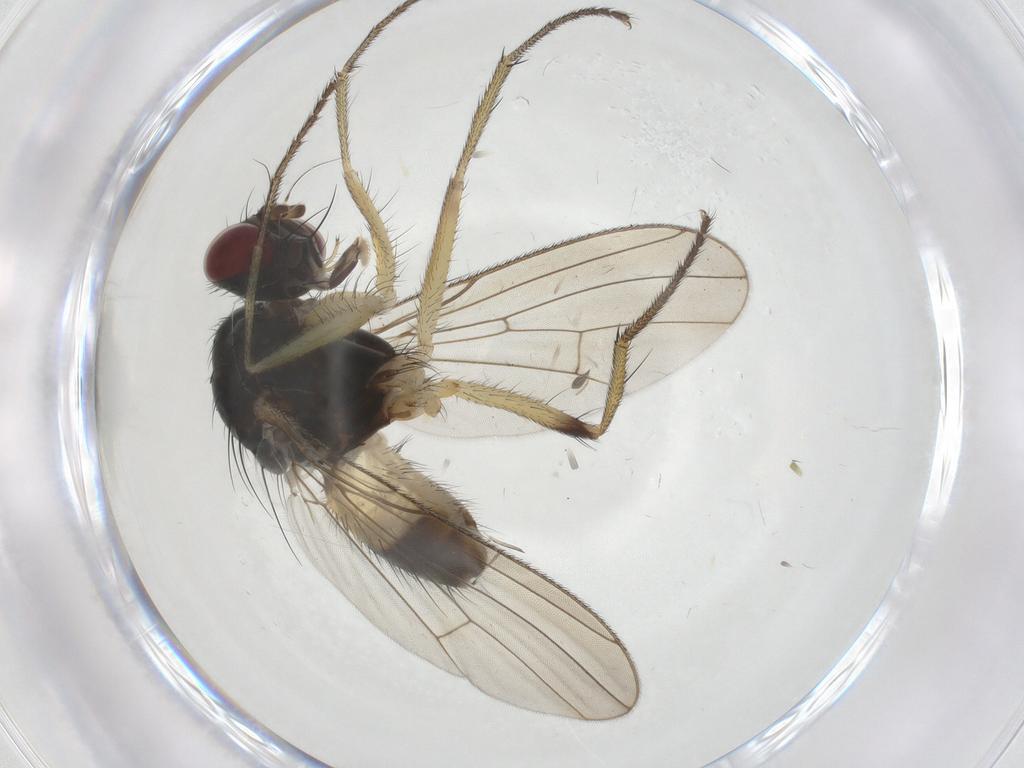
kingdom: Animalia
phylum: Arthropoda
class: Insecta
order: Diptera
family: Muscidae
